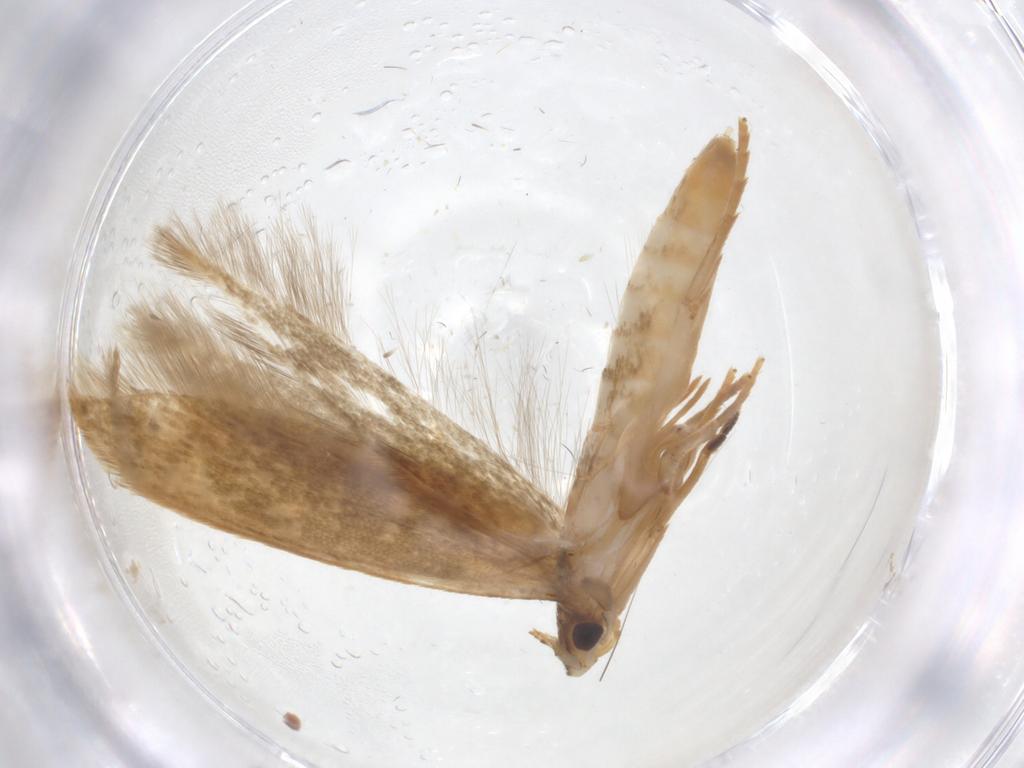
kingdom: Animalia
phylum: Arthropoda
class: Insecta
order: Lepidoptera
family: Tineidae
